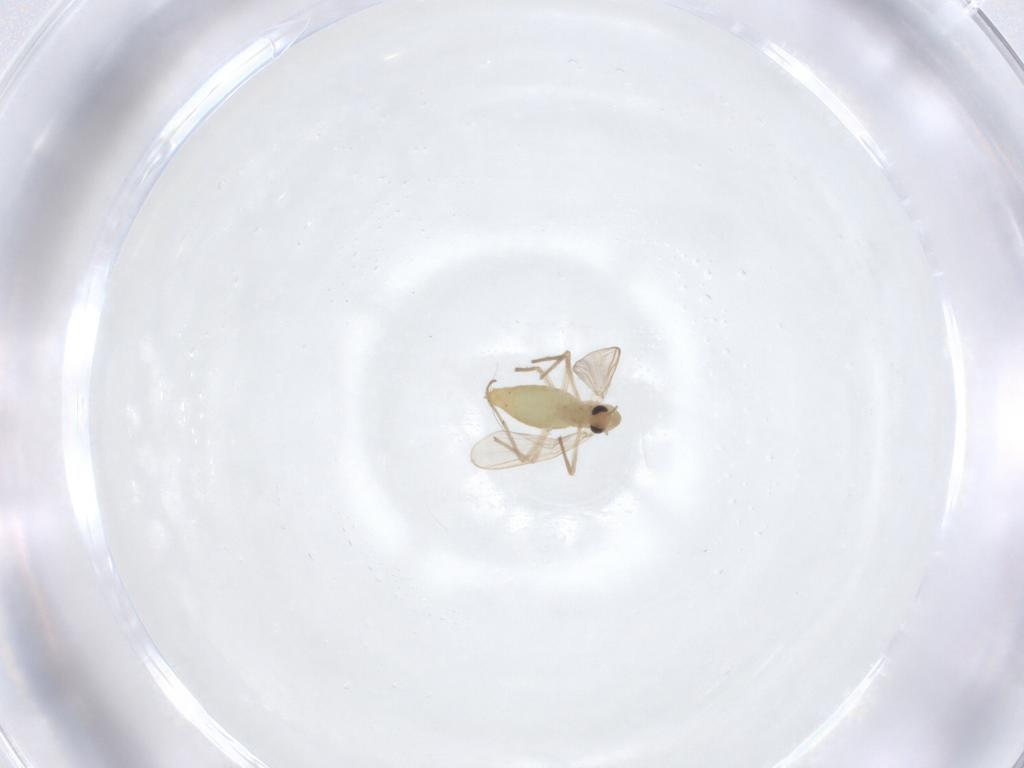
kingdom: Animalia
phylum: Arthropoda
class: Insecta
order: Diptera
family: Chironomidae
